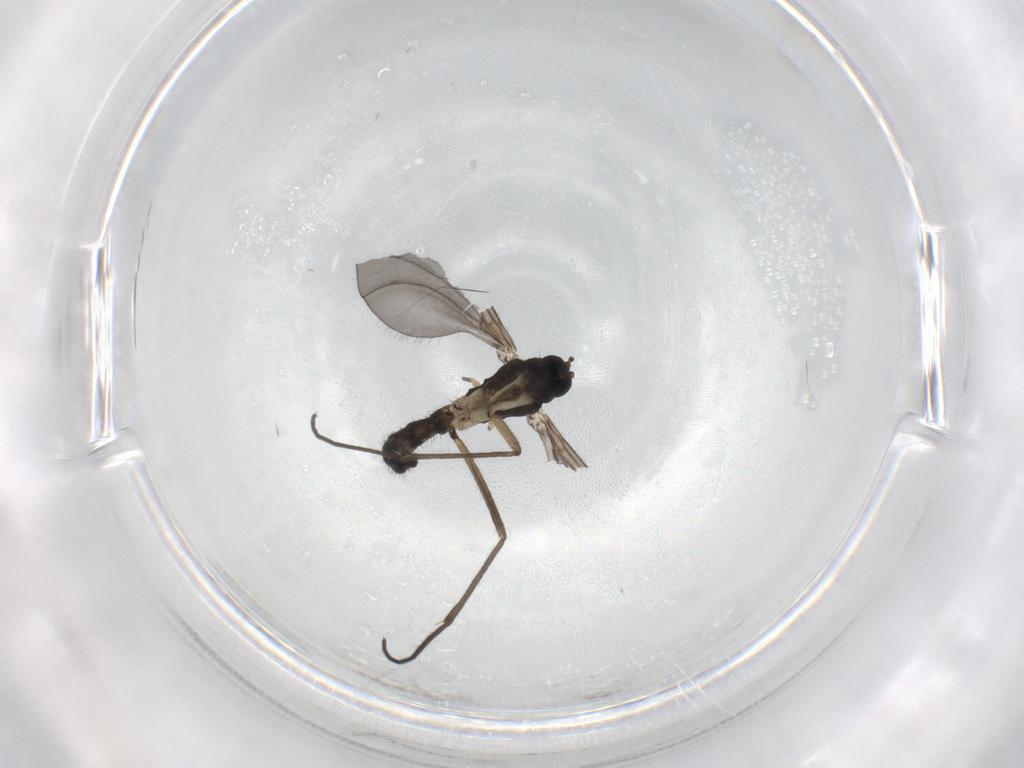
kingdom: Animalia
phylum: Arthropoda
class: Insecta
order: Diptera
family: Sciaridae
